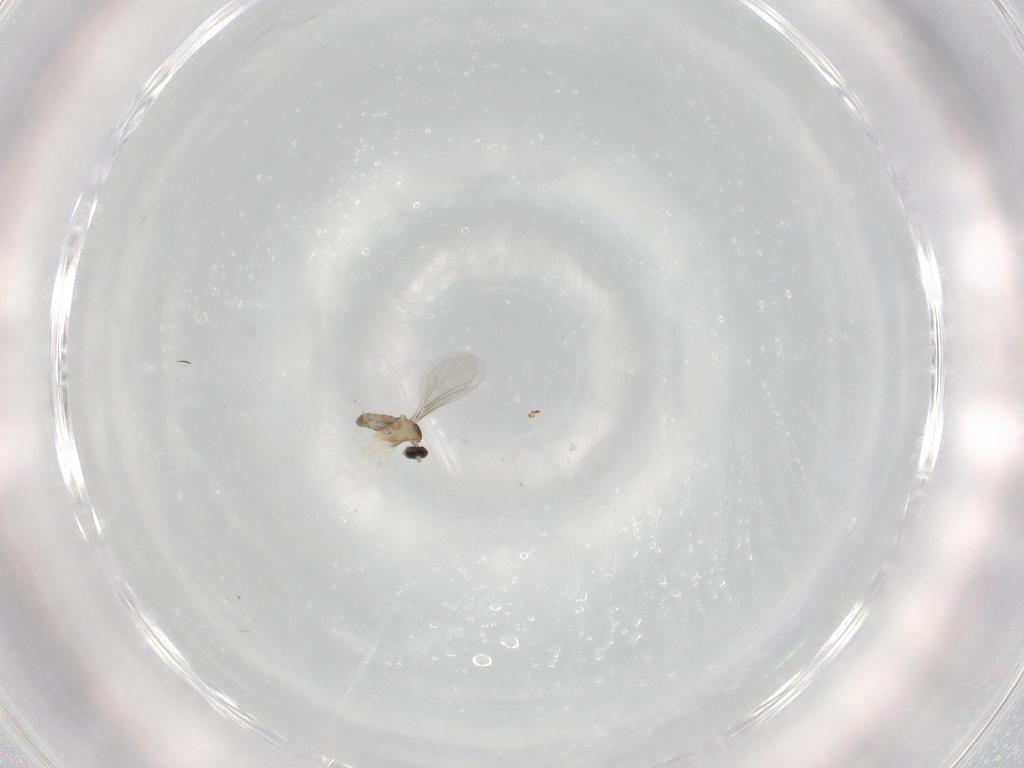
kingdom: Animalia
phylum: Arthropoda
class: Insecta
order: Diptera
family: Cecidomyiidae
